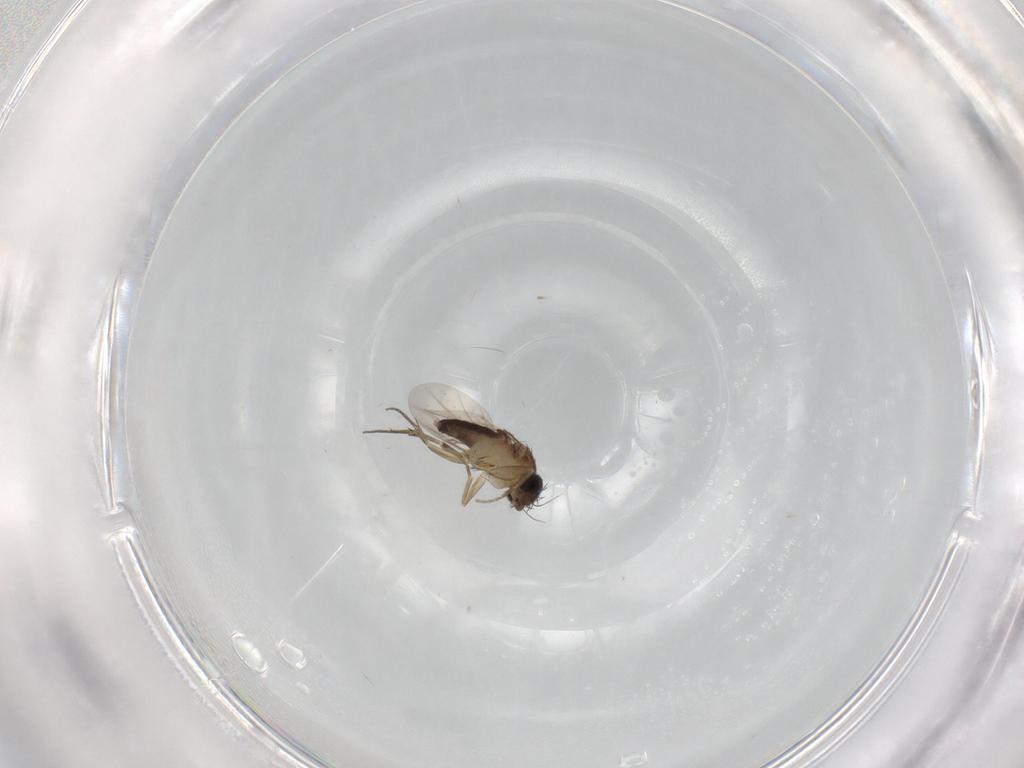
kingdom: Animalia
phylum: Arthropoda
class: Insecta
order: Diptera
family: Phoridae
